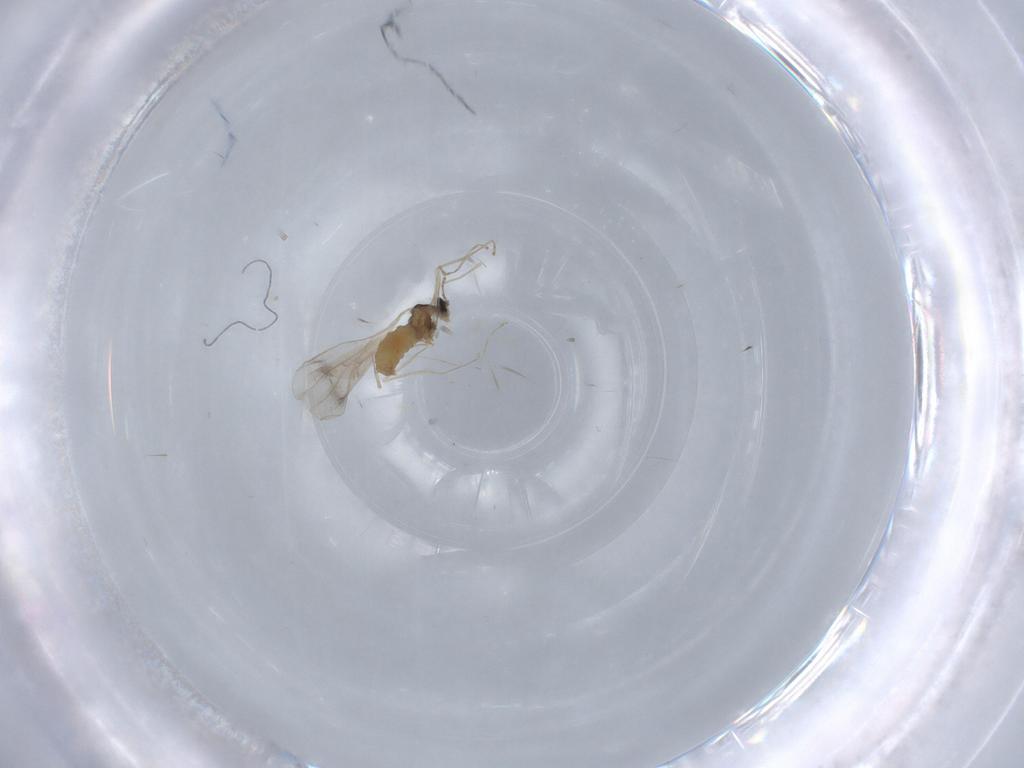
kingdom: Animalia
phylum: Arthropoda
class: Insecta
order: Diptera
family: Cecidomyiidae
